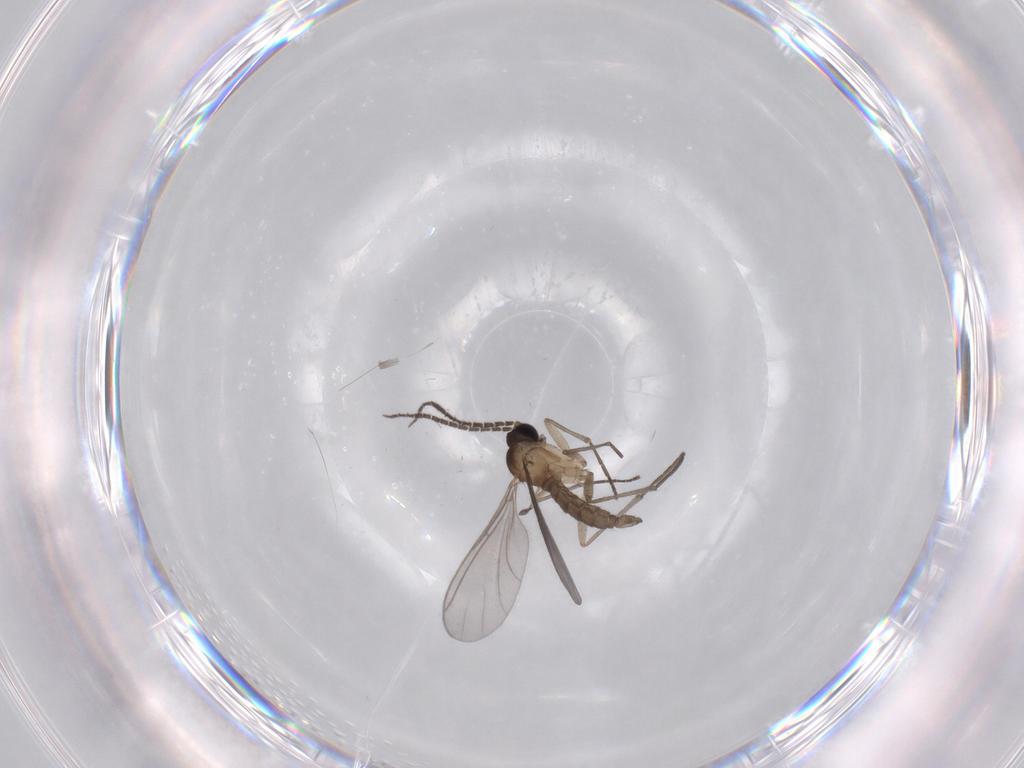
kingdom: Animalia
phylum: Arthropoda
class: Insecta
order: Diptera
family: Sciaridae
